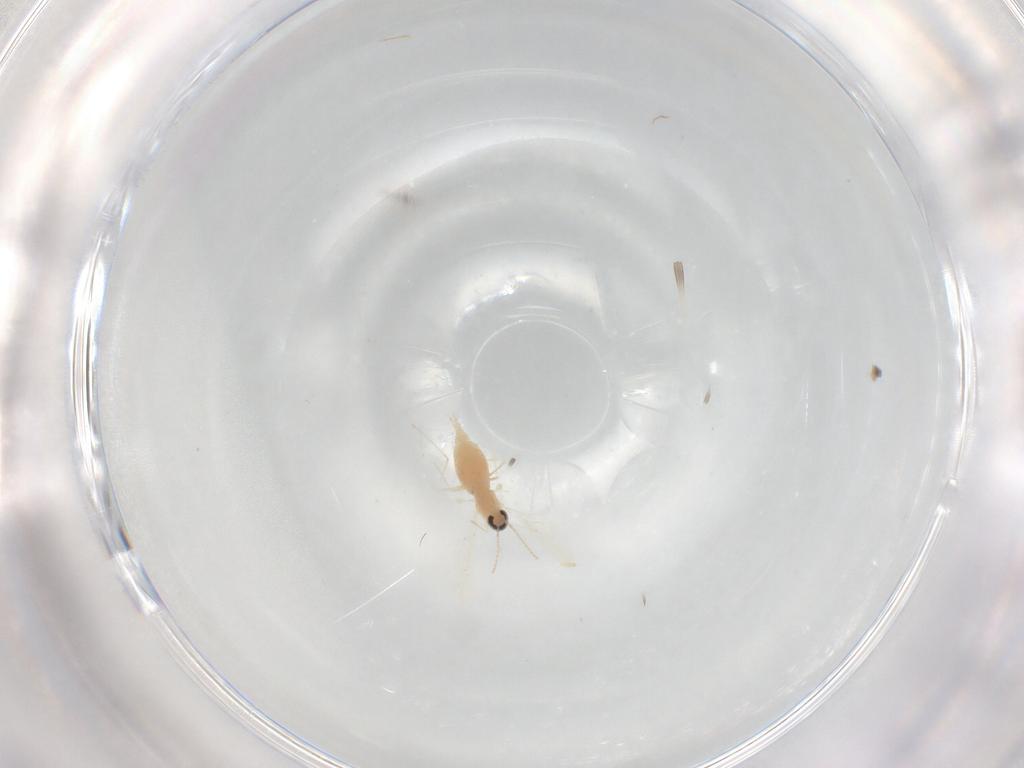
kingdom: Animalia
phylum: Arthropoda
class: Insecta
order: Diptera
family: Cecidomyiidae
